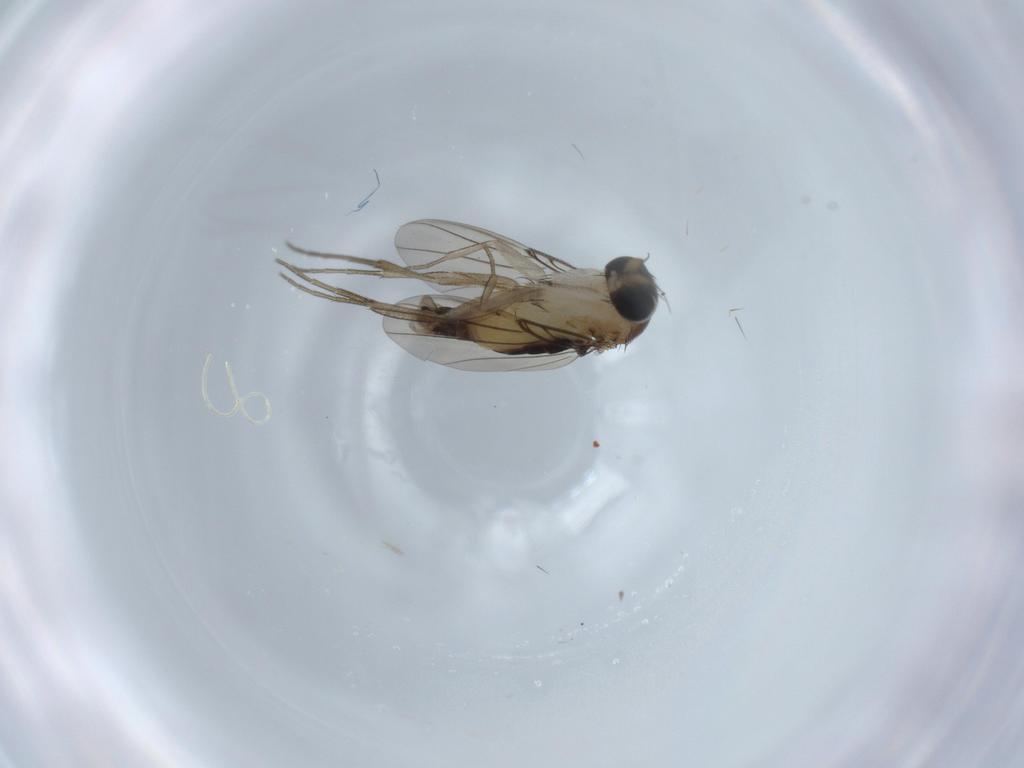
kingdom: Animalia
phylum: Arthropoda
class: Insecta
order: Diptera
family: Phoridae
